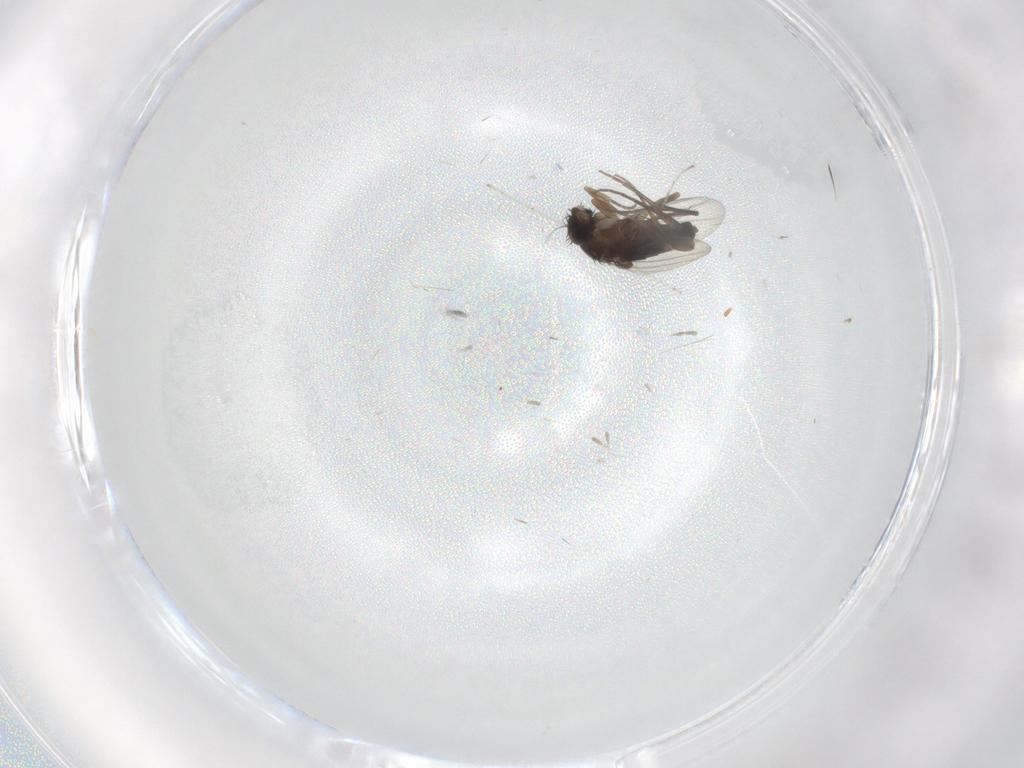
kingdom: Animalia
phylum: Arthropoda
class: Insecta
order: Diptera
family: Phoridae
